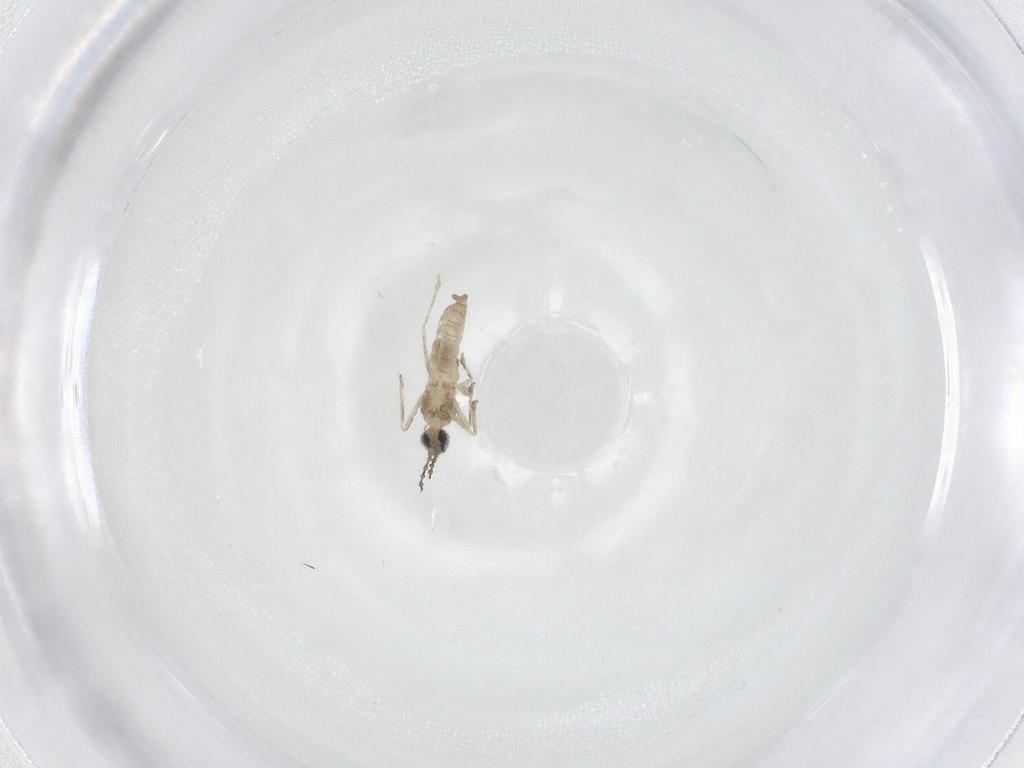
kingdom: Animalia
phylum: Arthropoda
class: Insecta
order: Diptera
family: Cecidomyiidae
